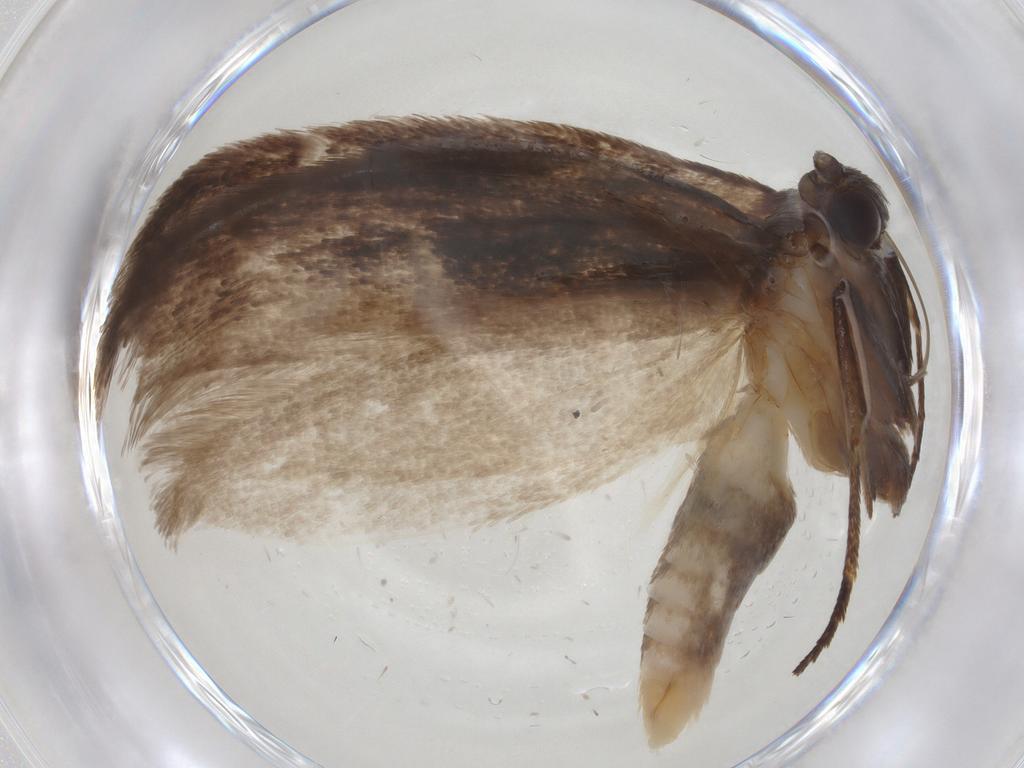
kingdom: Animalia
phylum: Arthropoda
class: Insecta
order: Lepidoptera
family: Roeslerstammiidae
